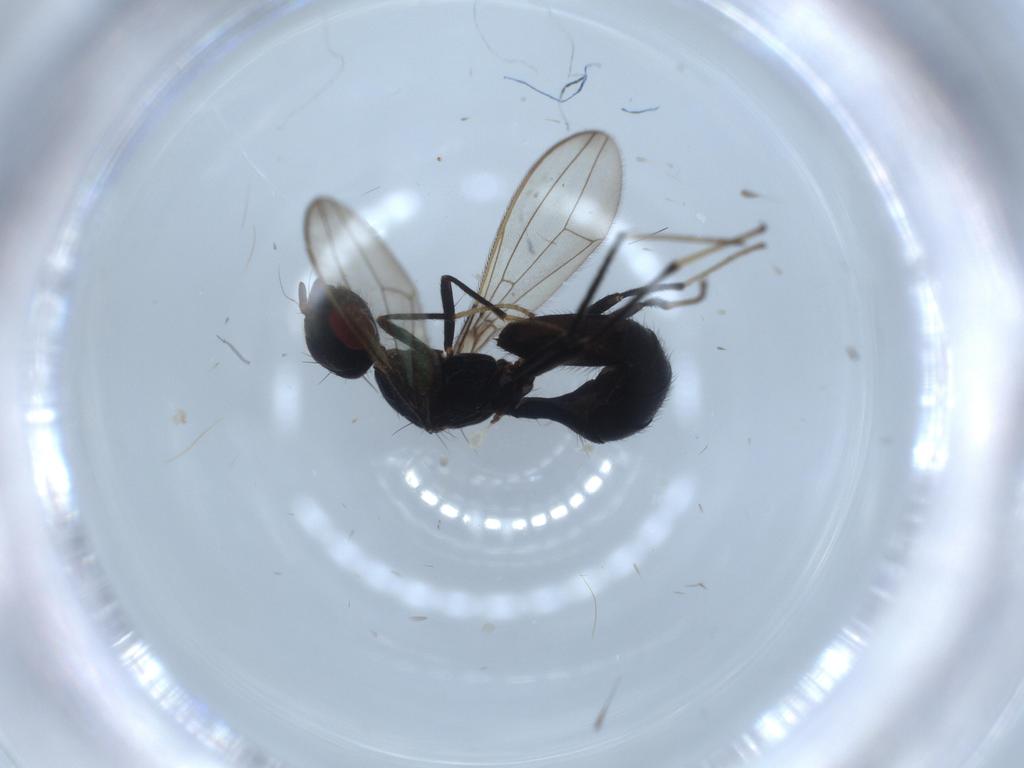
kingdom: Animalia
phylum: Arthropoda
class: Insecta
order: Diptera
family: Richardiidae
